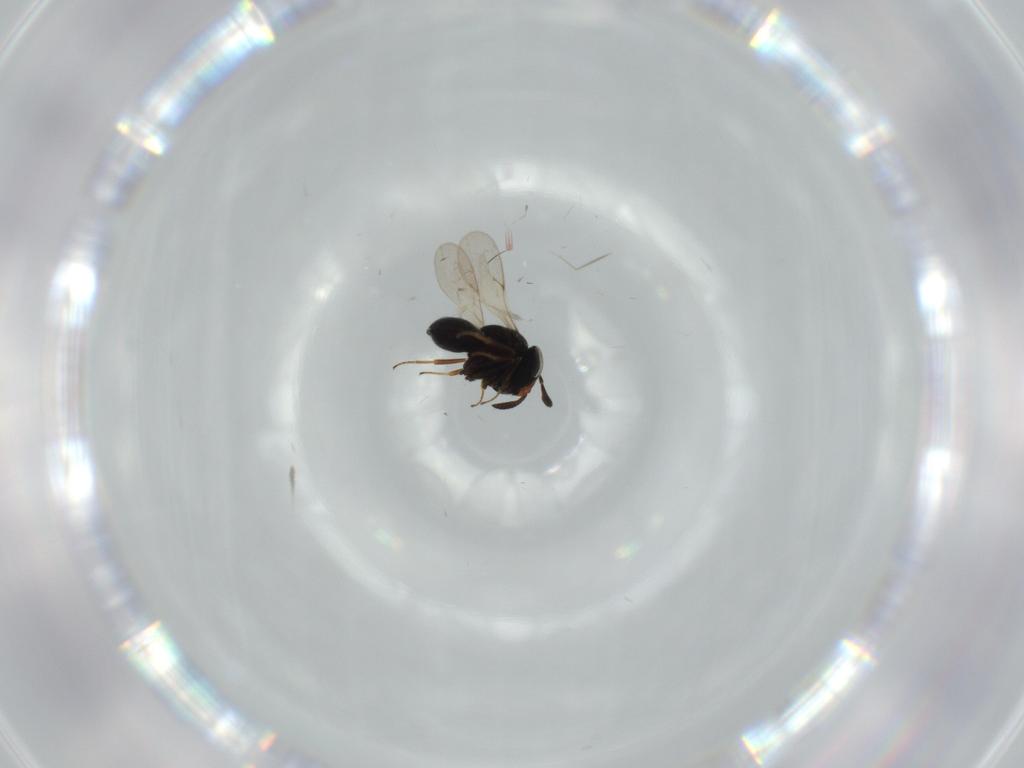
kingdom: Animalia
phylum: Arthropoda
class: Insecta
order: Hymenoptera
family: Scelionidae
